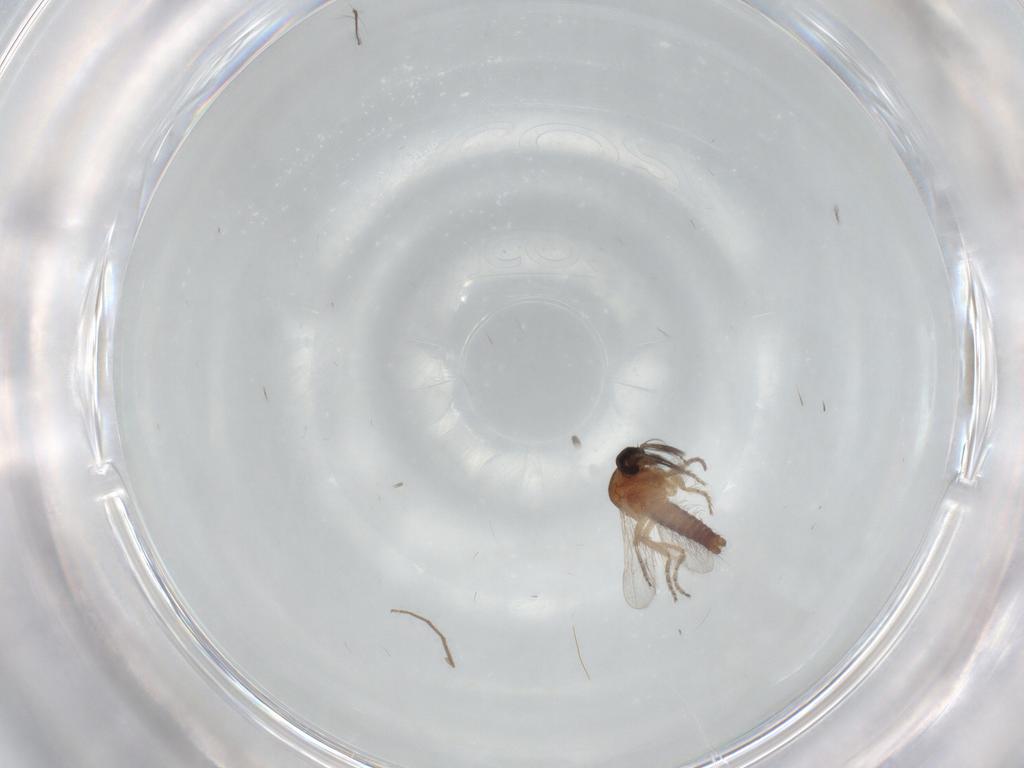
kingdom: Animalia
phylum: Arthropoda
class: Insecta
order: Diptera
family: Ceratopogonidae
